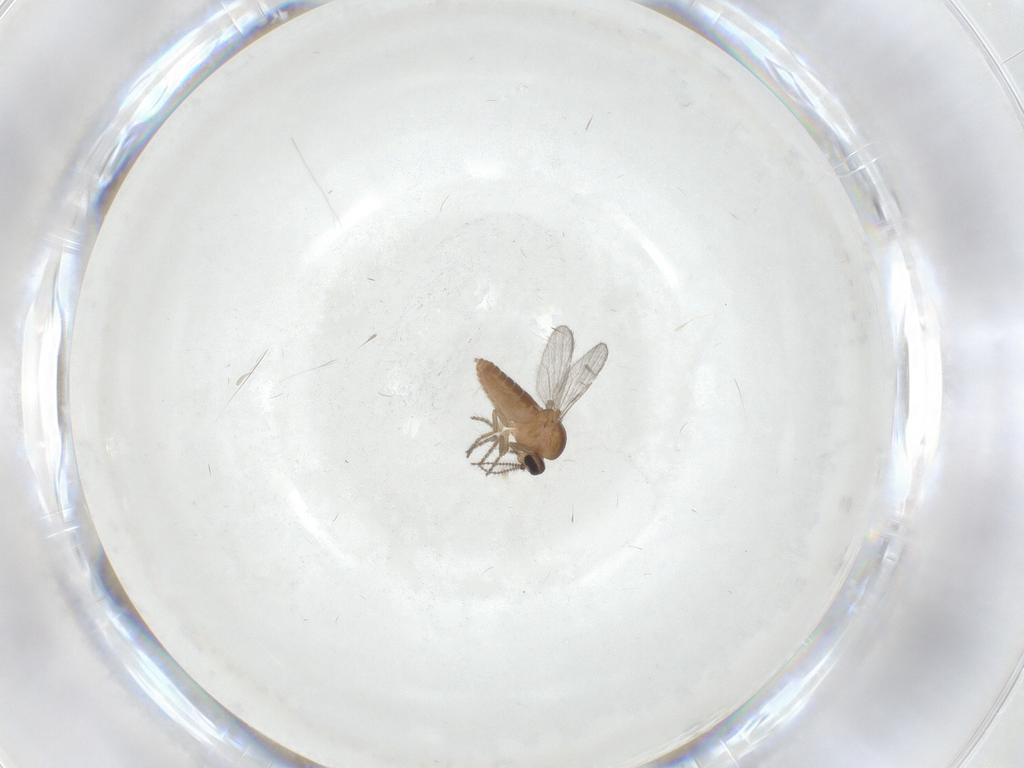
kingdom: Animalia
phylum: Arthropoda
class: Insecta
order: Diptera
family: Ceratopogonidae
